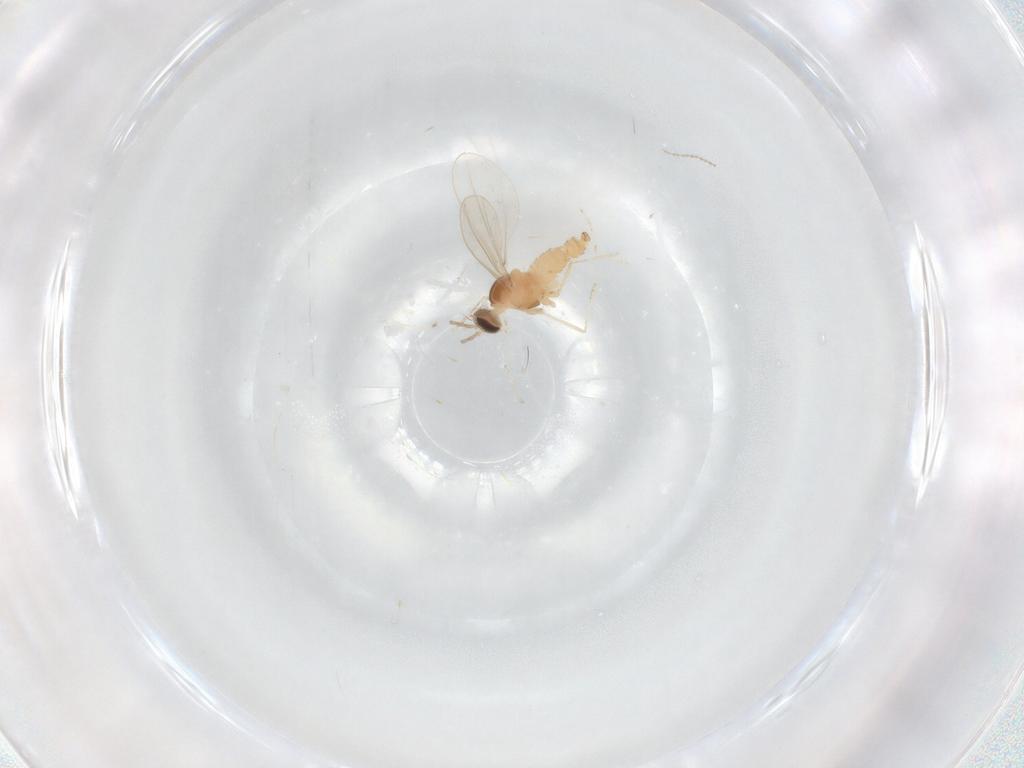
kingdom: Animalia
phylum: Arthropoda
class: Insecta
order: Diptera
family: Cecidomyiidae
